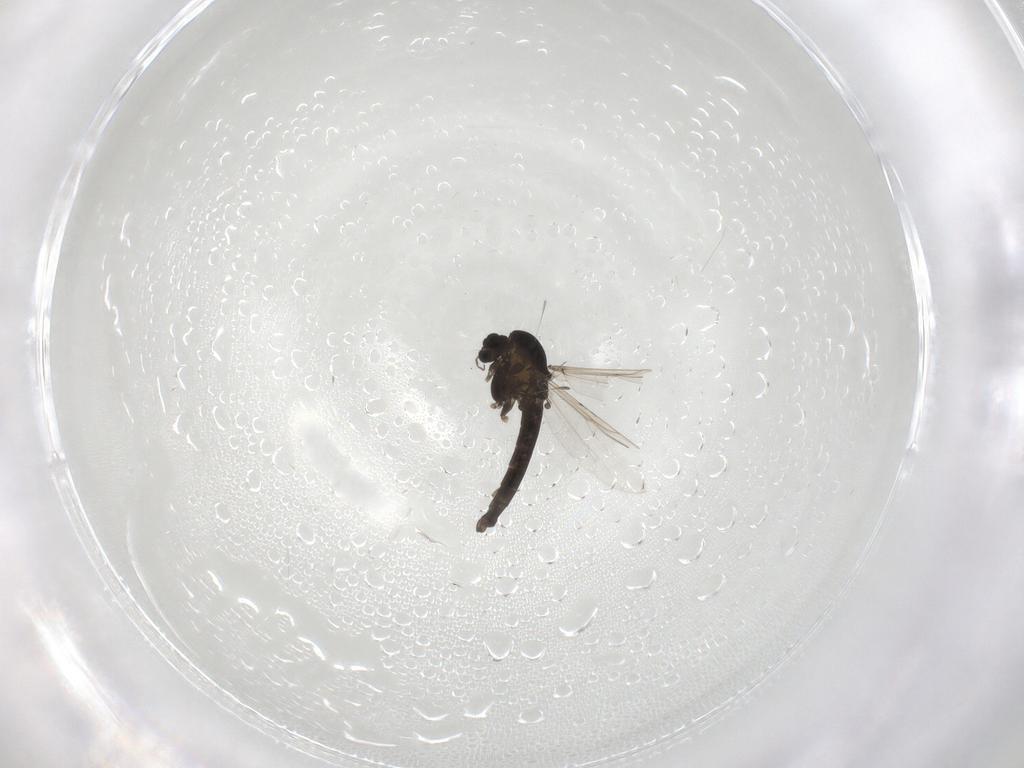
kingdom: Animalia
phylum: Arthropoda
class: Insecta
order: Diptera
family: Chironomidae
